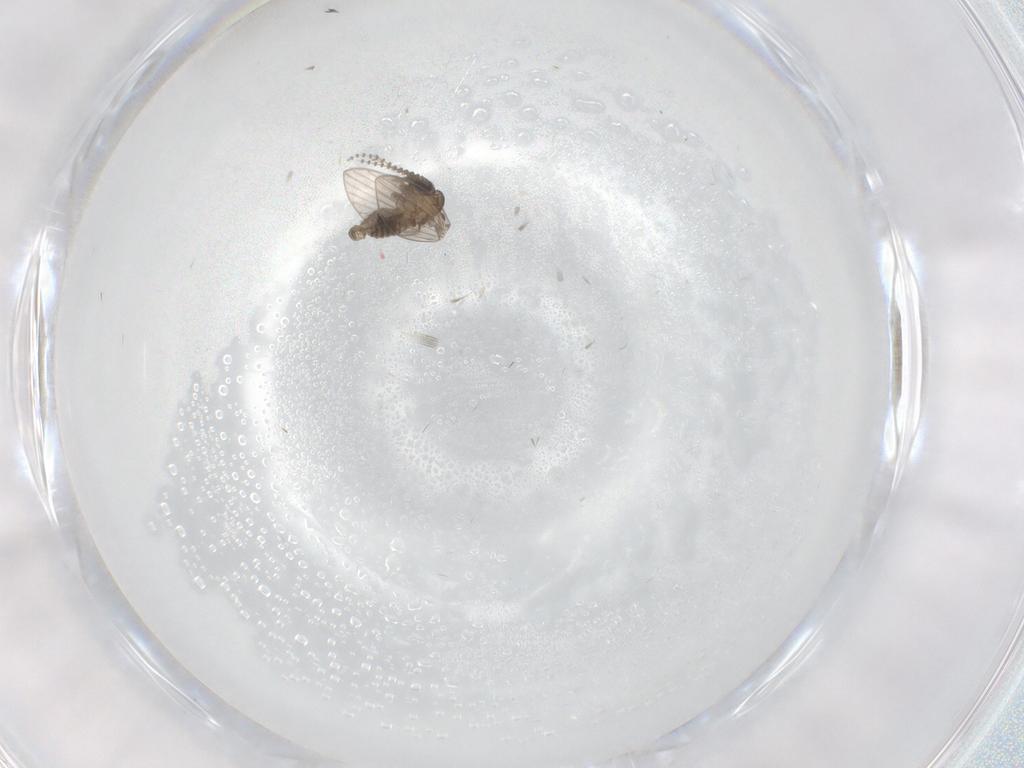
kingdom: Animalia
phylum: Arthropoda
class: Insecta
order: Diptera
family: Psychodidae
